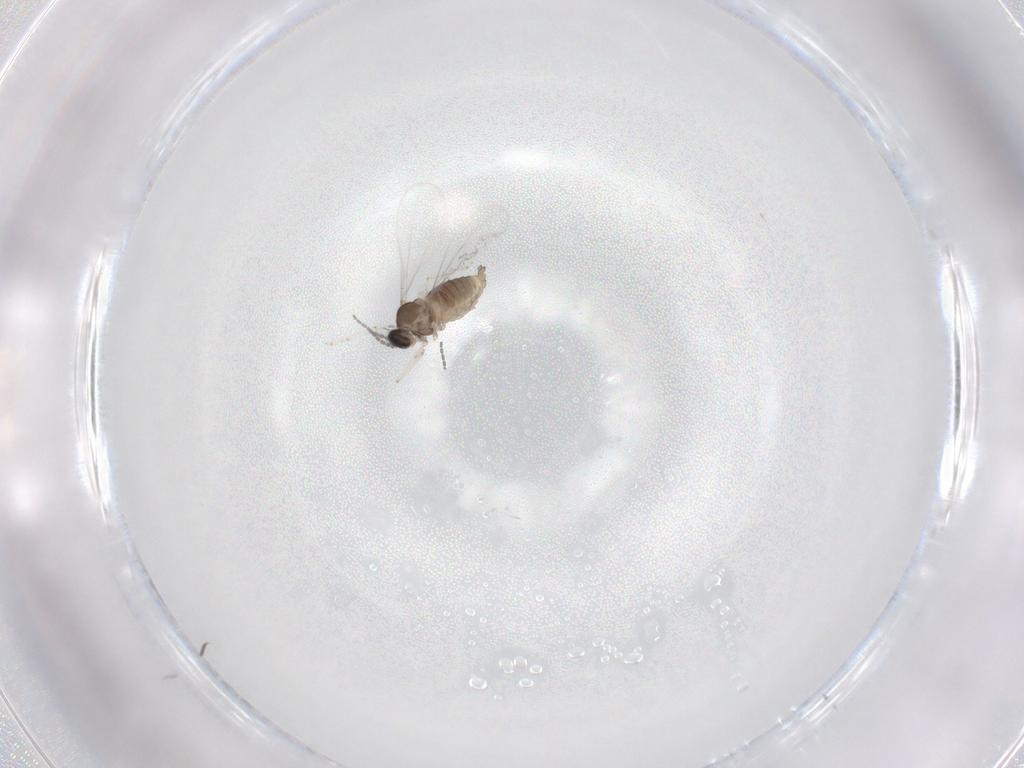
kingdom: Animalia
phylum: Arthropoda
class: Insecta
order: Diptera
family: Cecidomyiidae
